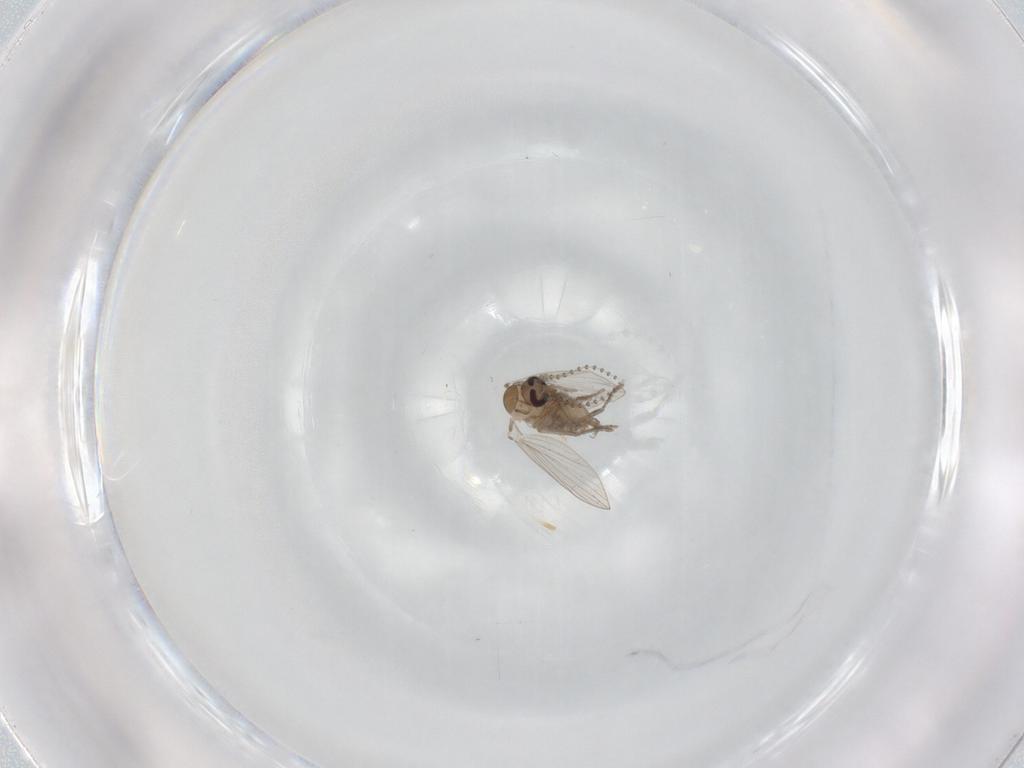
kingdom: Animalia
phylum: Arthropoda
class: Insecta
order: Diptera
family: Psychodidae
